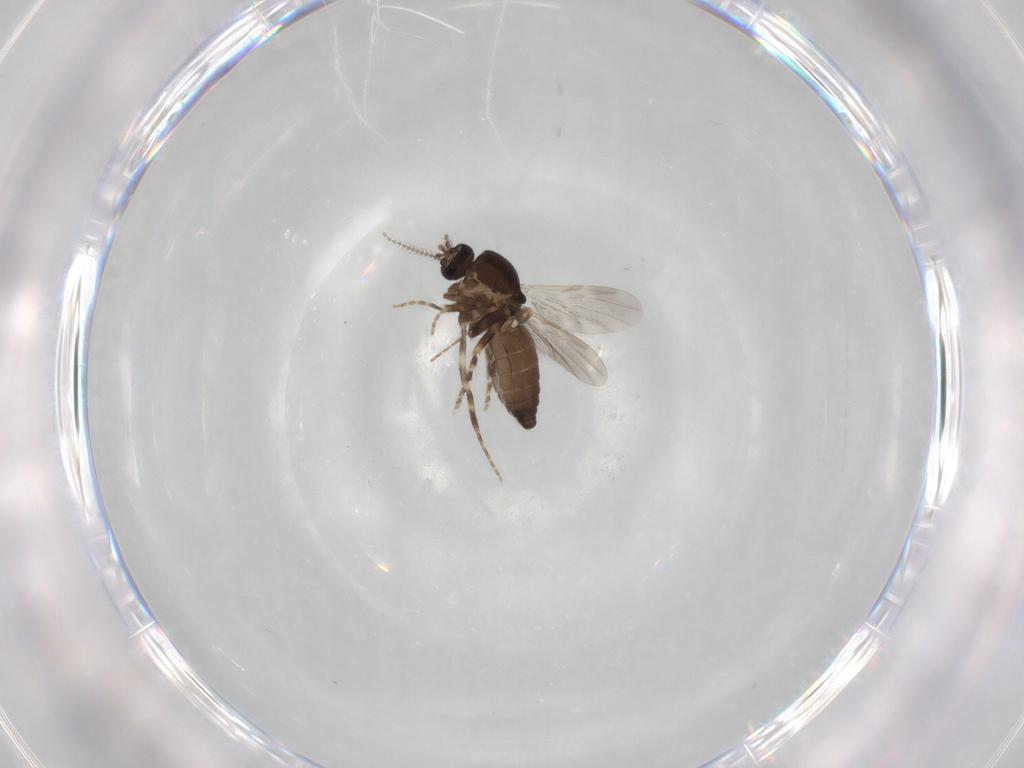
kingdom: Animalia
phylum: Arthropoda
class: Insecta
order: Diptera
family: Ceratopogonidae
